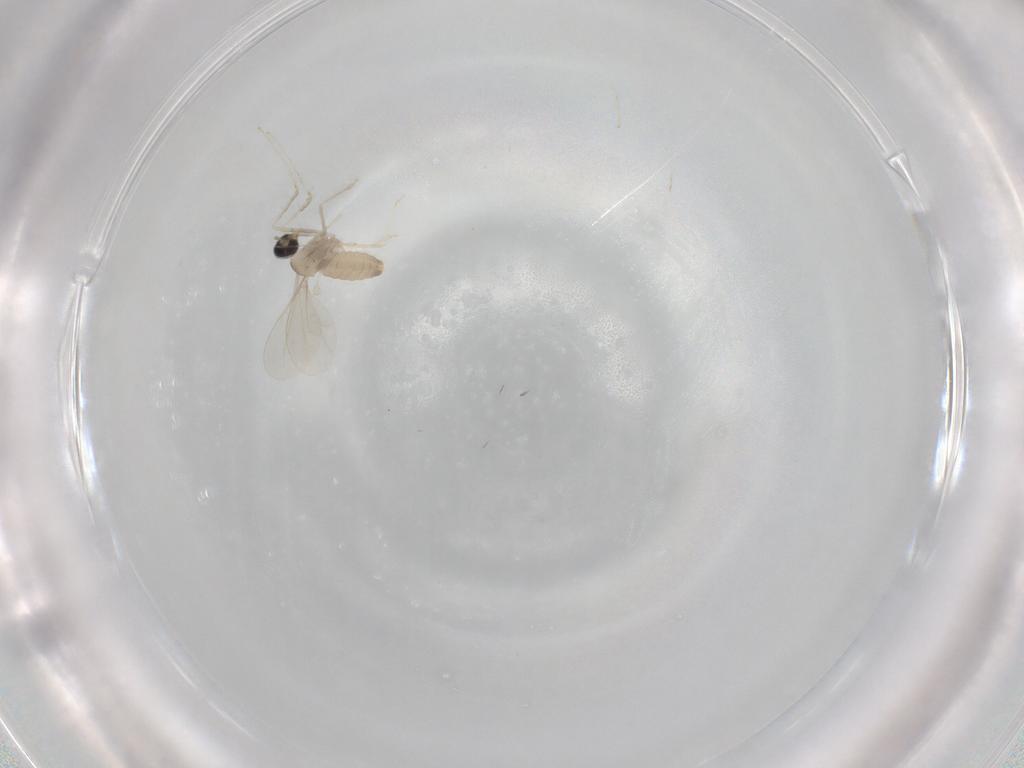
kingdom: Animalia
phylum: Arthropoda
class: Insecta
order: Diptera
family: Cecidomyiidae
